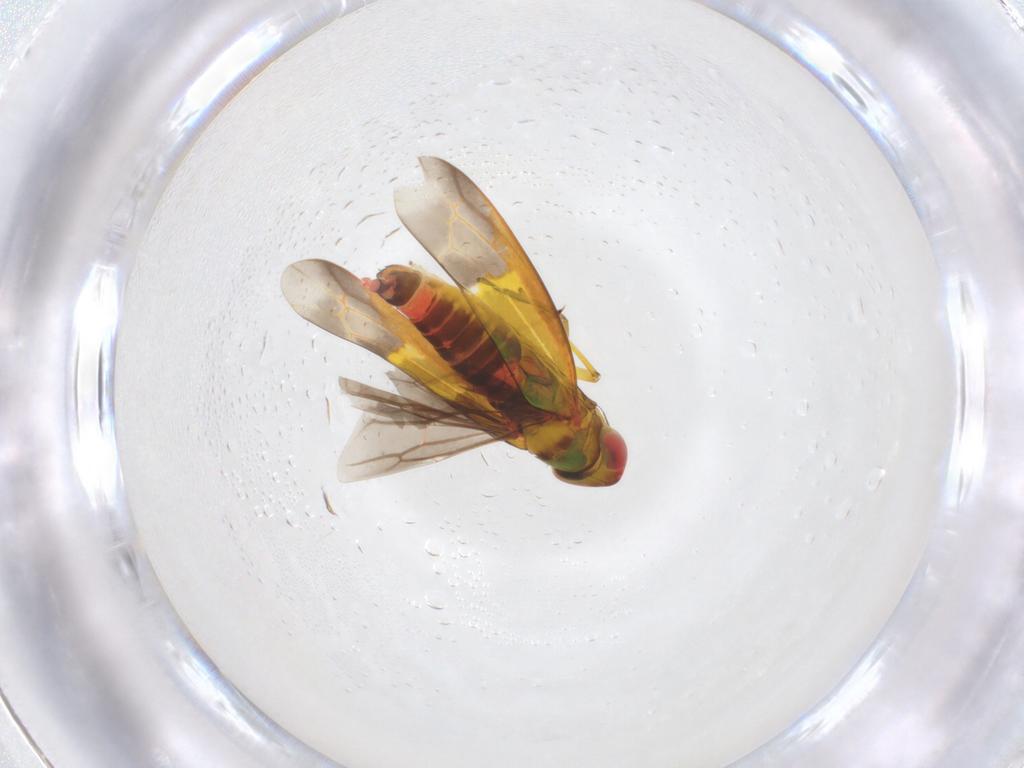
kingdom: Animalia
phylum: Arthropoda
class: Insecta
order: Hemiptera
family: Cicadellidae
